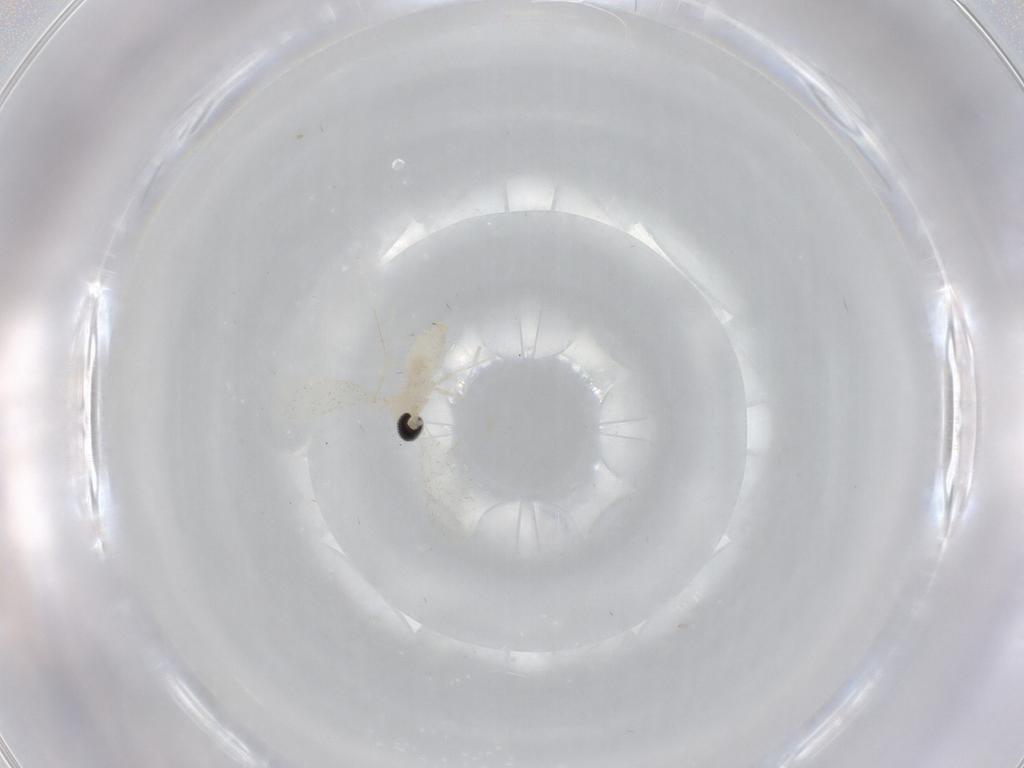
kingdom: Animalia
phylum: Arthropoda
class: Insecta
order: Diptera
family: Cecidomyiidae
